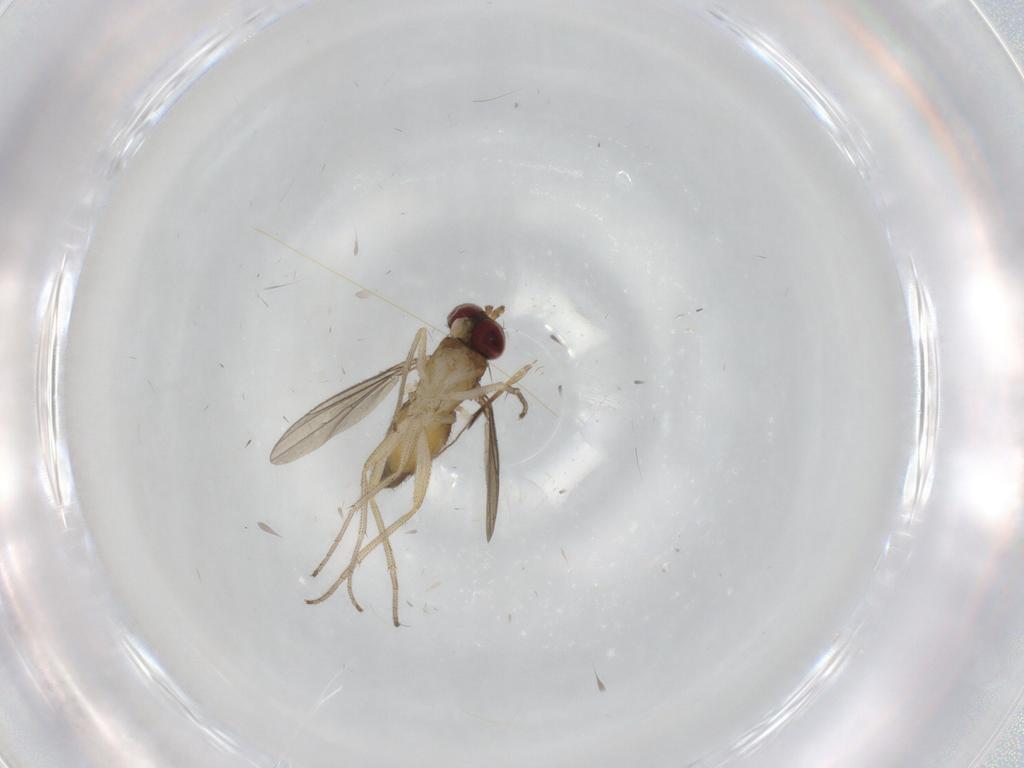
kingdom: Animalia
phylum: Arthropoda
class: Insecta
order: Diptera
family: Dolichopodidae
